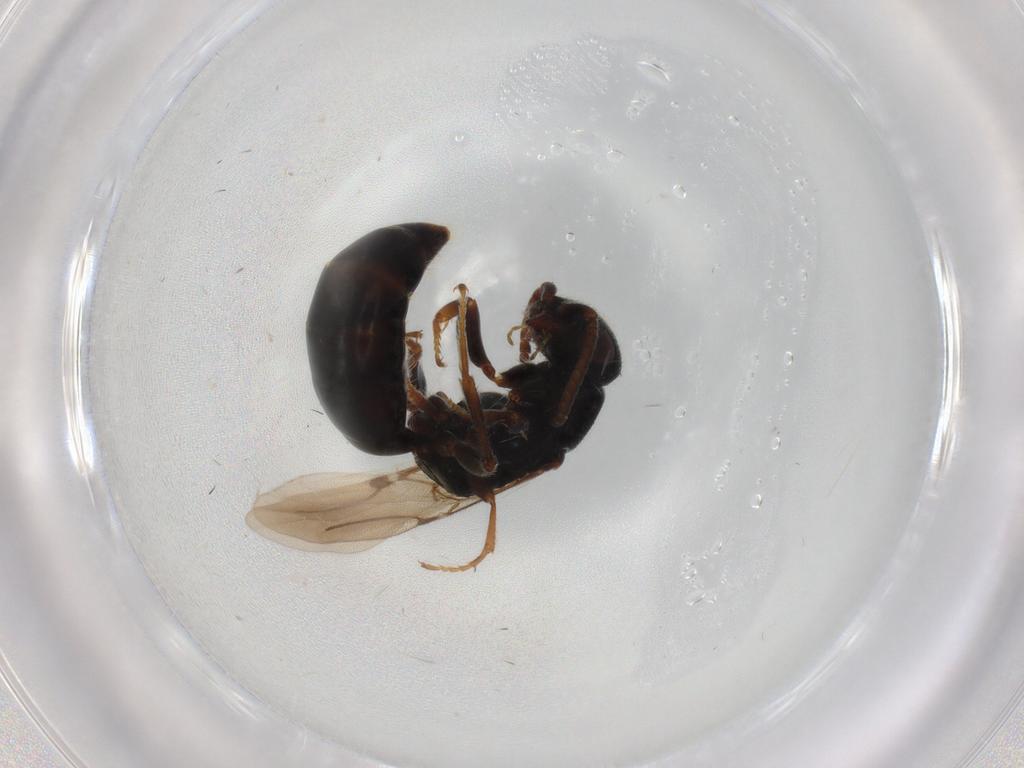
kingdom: Animalia
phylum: Arthropoda
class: Insecta
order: Hymenoptera
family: Bethylidae
